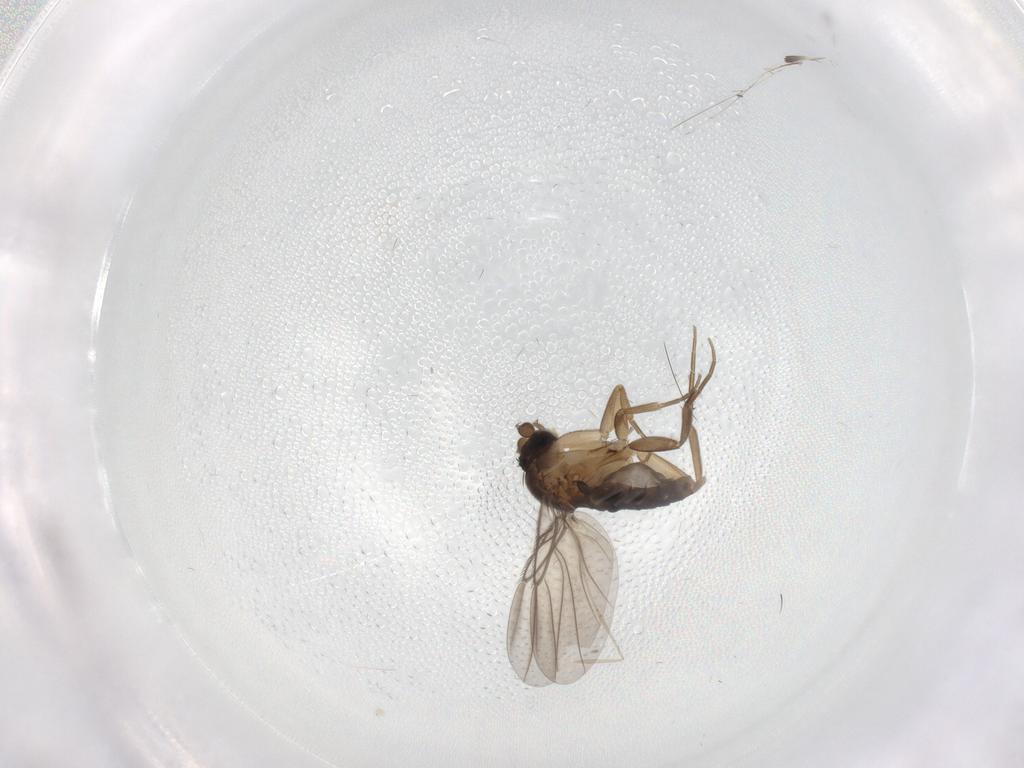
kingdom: Animalia
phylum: Arthropoda
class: Insecta
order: Diptera
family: Chironomidae
